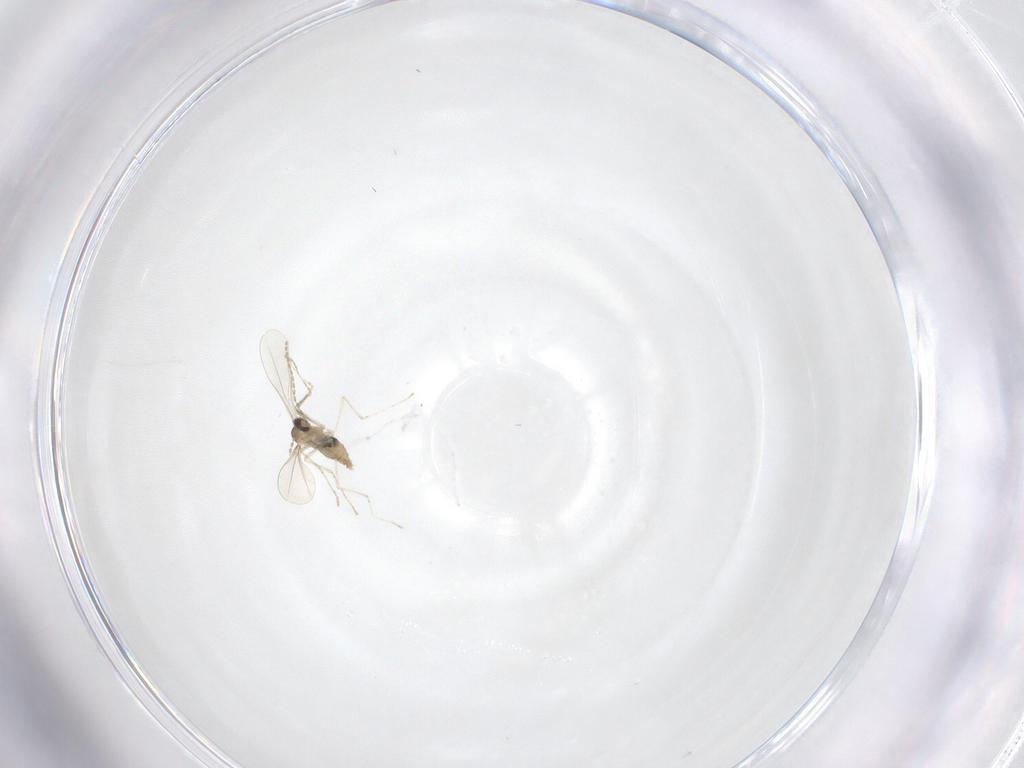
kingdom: Animalia
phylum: Arthropoda
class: Insecta
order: Diptera
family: Cecidomyiidae
